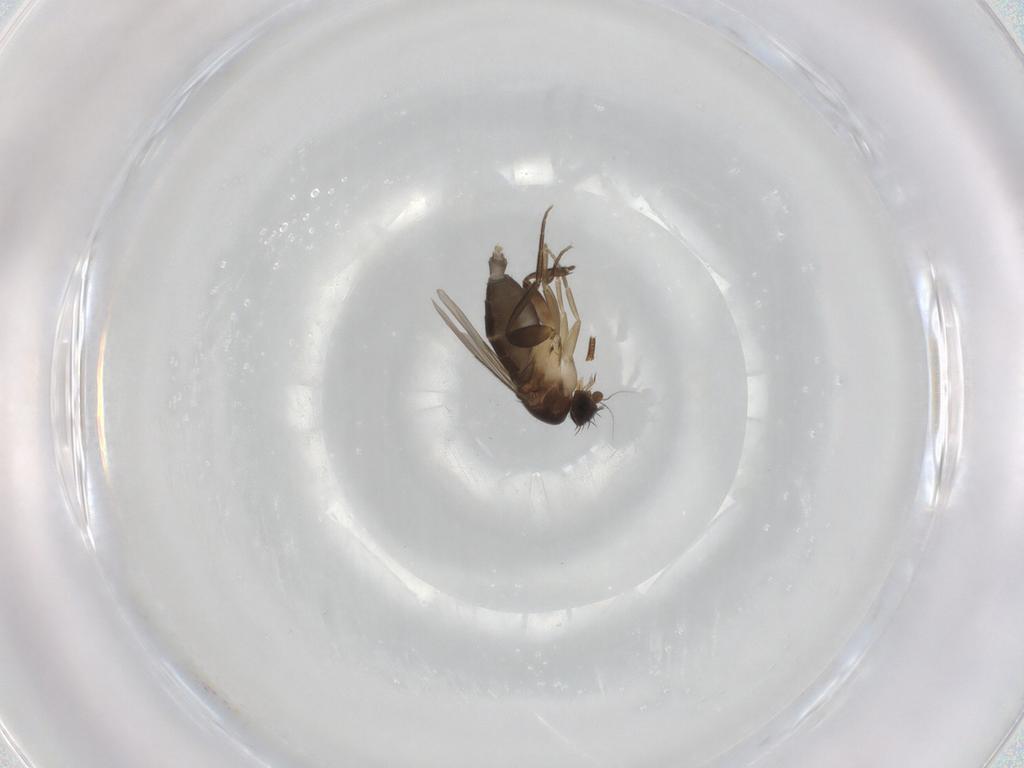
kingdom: Animalia
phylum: Arthropoda
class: Insecta
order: Diptera
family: Phoridae
